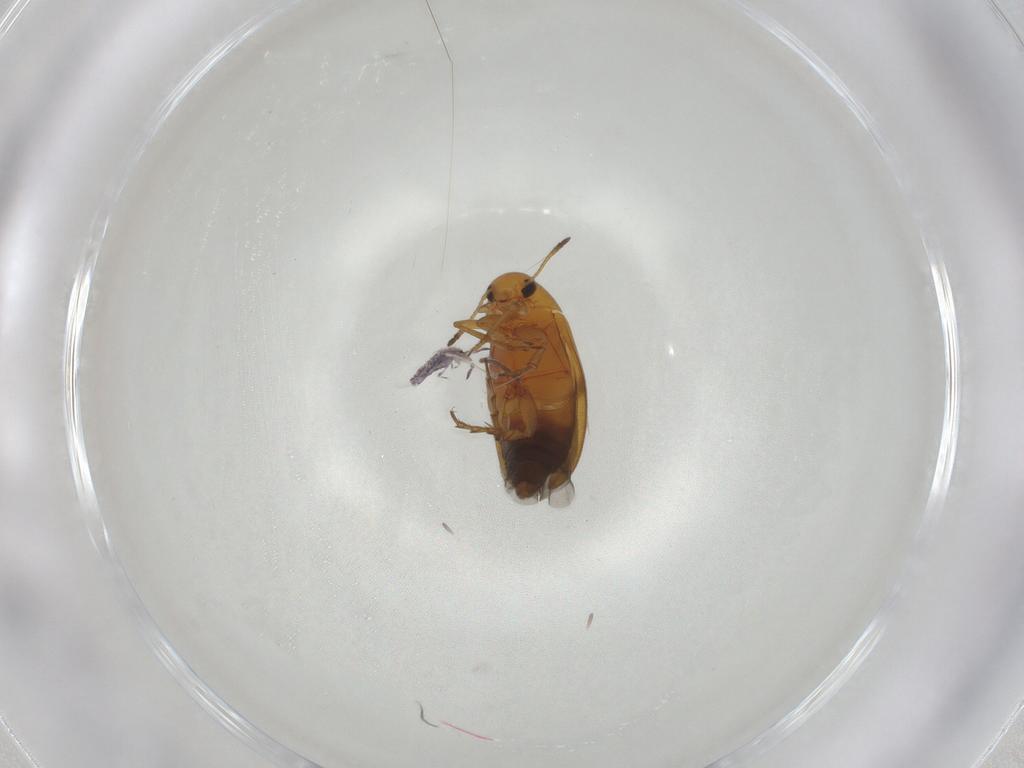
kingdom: Animalia
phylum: Arthropoda
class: Insecta
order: Coleoptera
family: Scraptiidae
